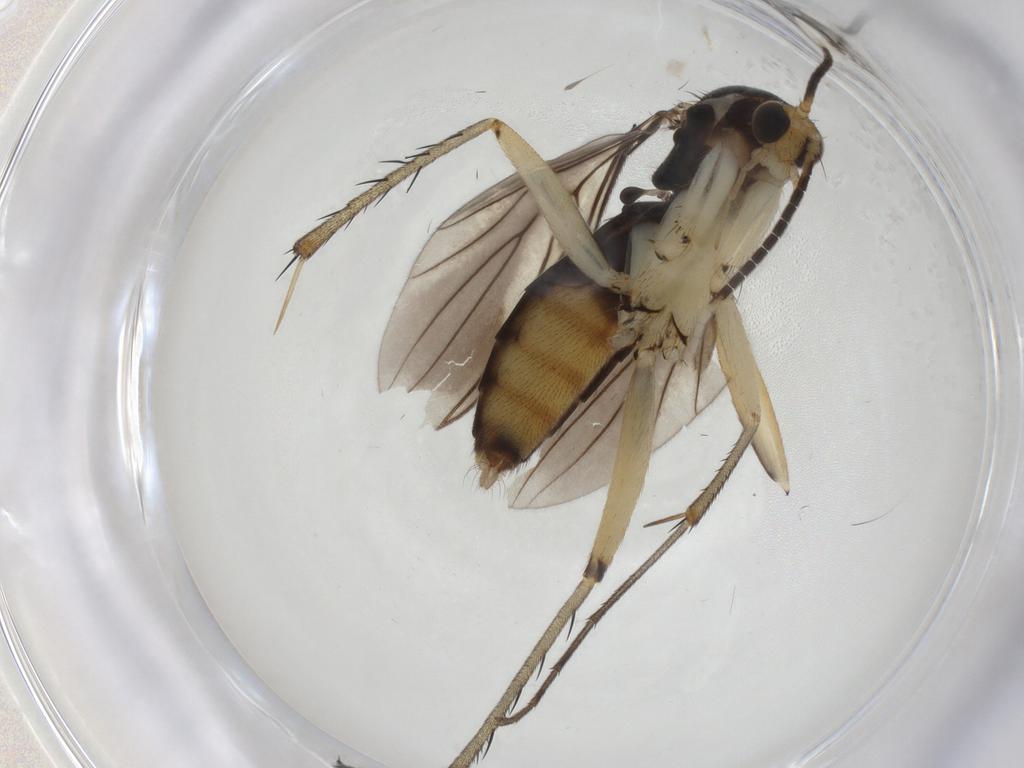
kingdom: Animalia
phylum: Arthropoda
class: Insecta
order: Diptera
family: Mycetophilidae
